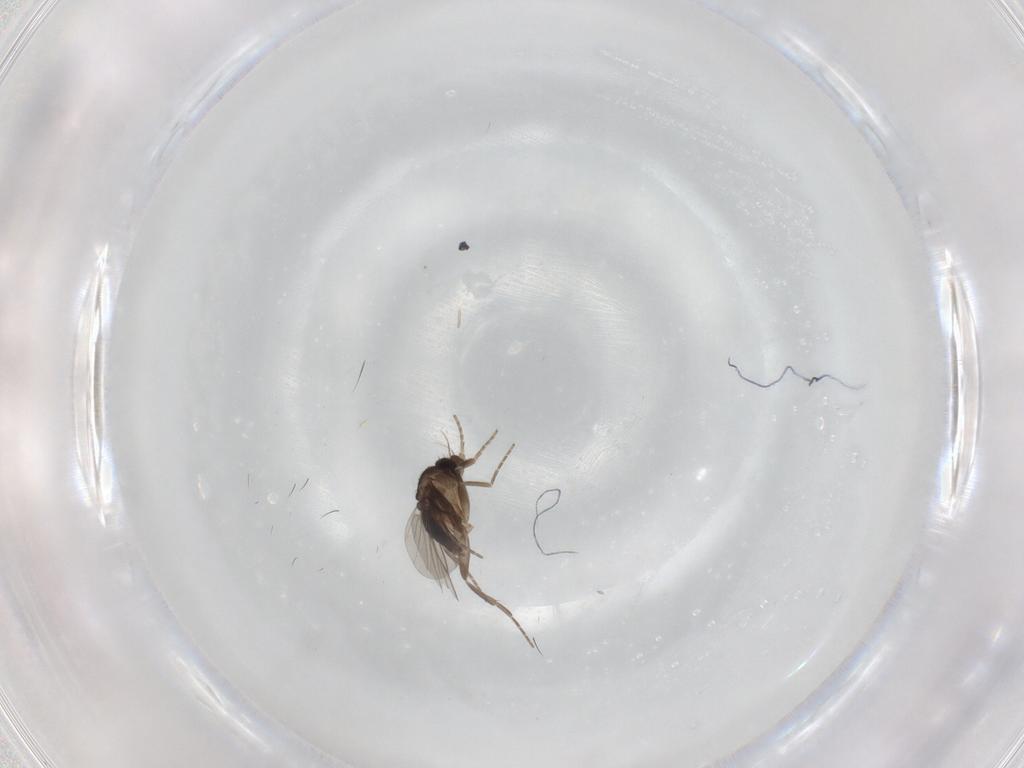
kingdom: Animalia
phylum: Arthropoda
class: Insecta
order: Diptera
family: Phoridae
